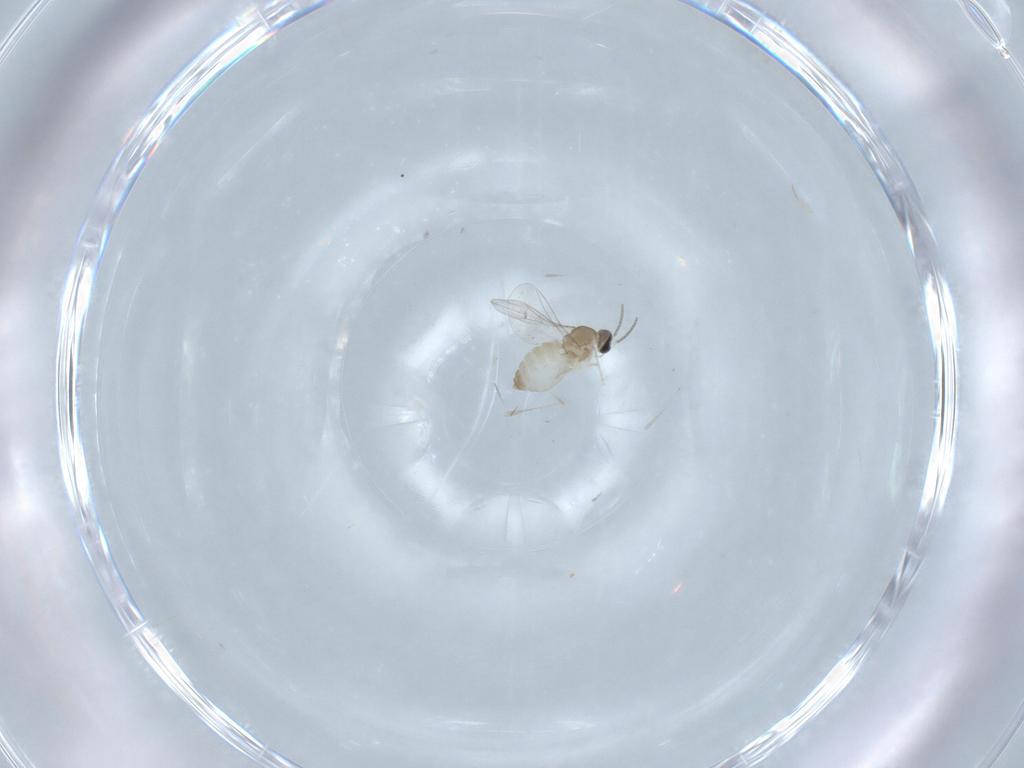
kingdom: Animalia
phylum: Arthropoda
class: Insecta
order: Diptera
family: Cecidomyiidae
